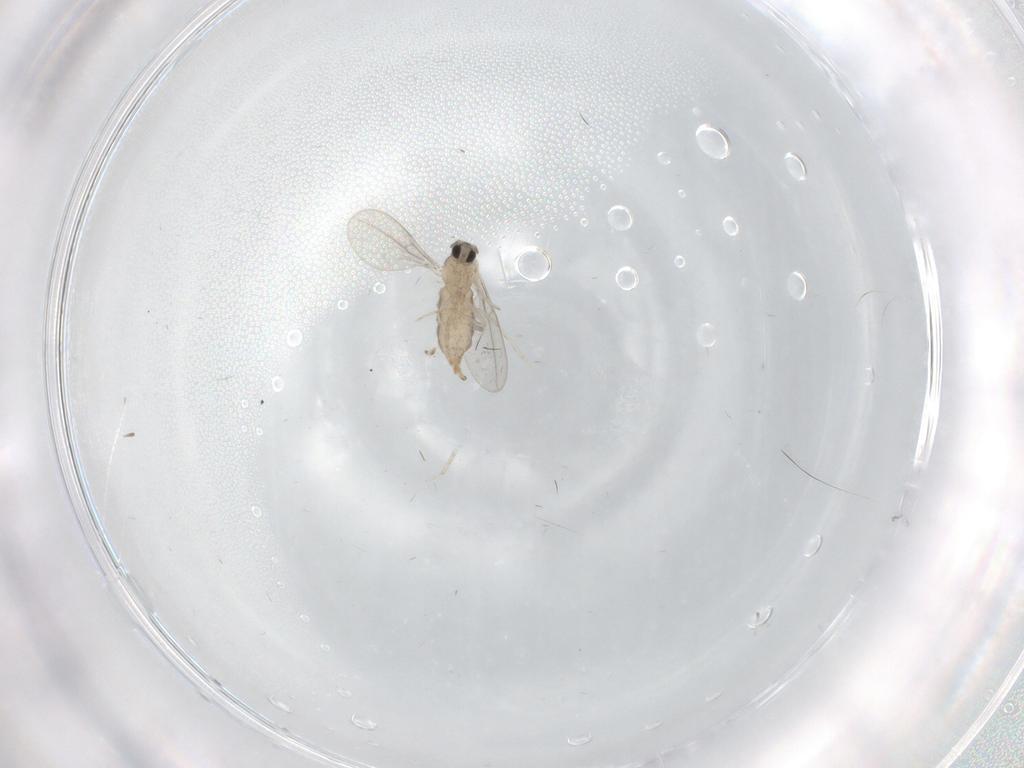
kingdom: Animalia
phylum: Arthropoda
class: Insecta
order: Diptera
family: Cecidomyiidae
